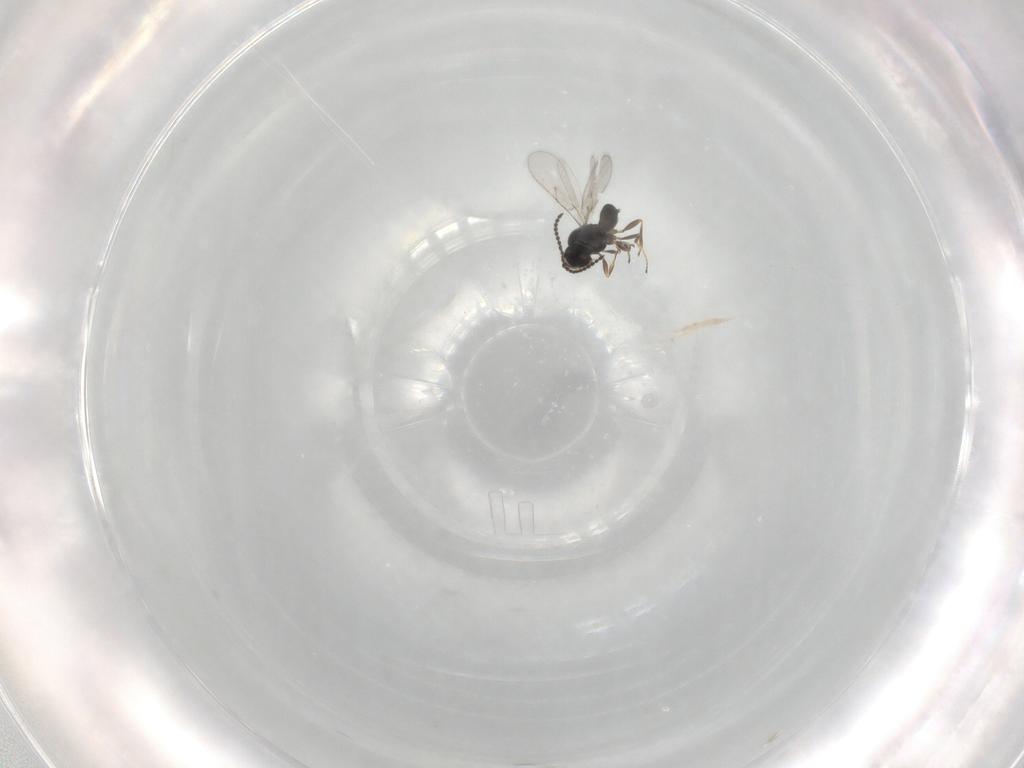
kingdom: Animalia
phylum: Arthropoda
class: Insecta
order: Hymenoptera
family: Scelionidae
